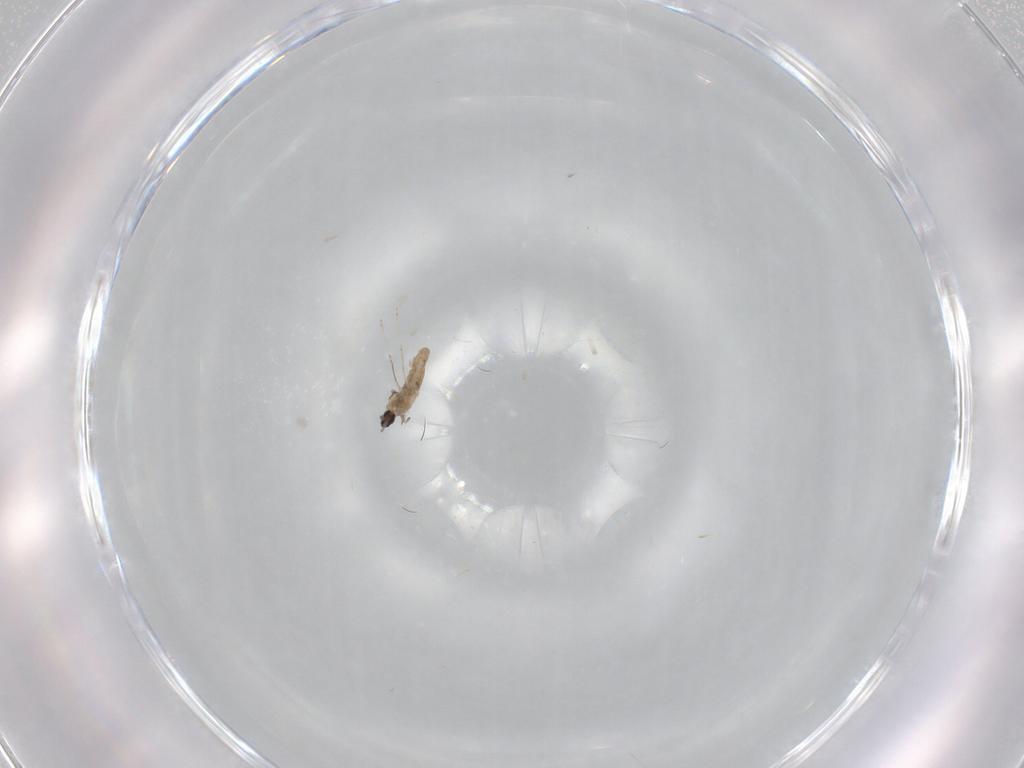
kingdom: Animalia
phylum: Arthropoda
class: Insecta
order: Diptera
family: Cecidomyiidae
